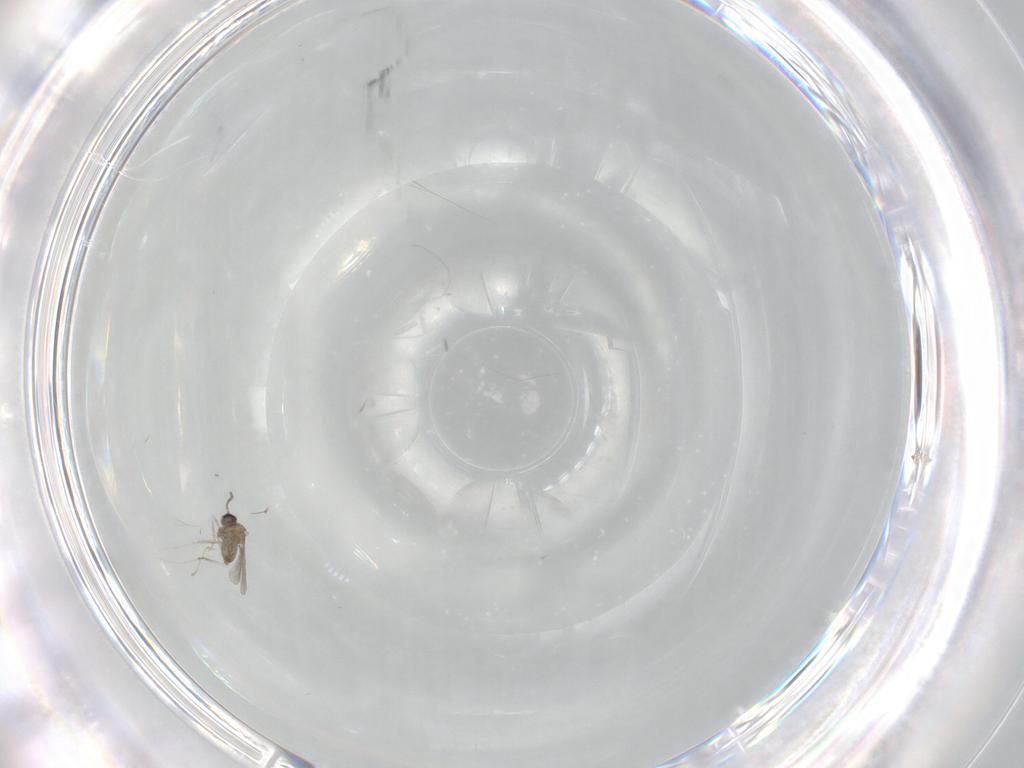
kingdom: Animalia
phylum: Arthropoda
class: Insecta
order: Diptera
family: Cecidomyiidae
